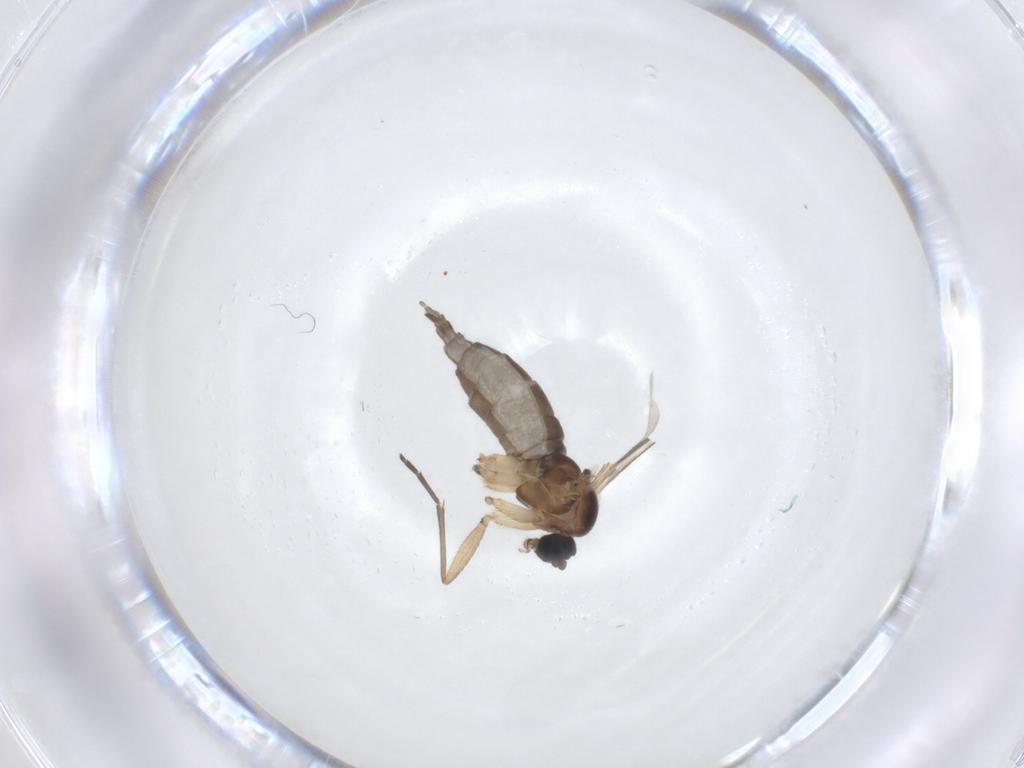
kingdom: Animalia
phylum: Arthropoda
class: Insecta
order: Diptera
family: Sciaridae
